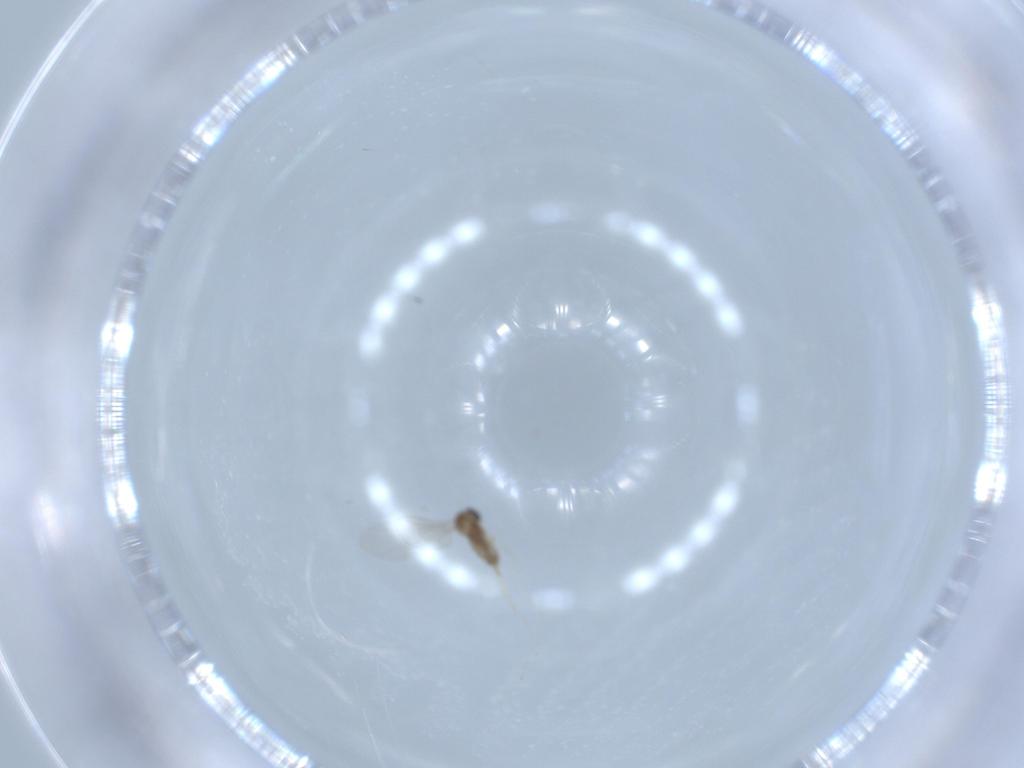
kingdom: Animalia
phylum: Arthropoda
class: Insecta
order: Diptera
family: Cecidomyiidae
